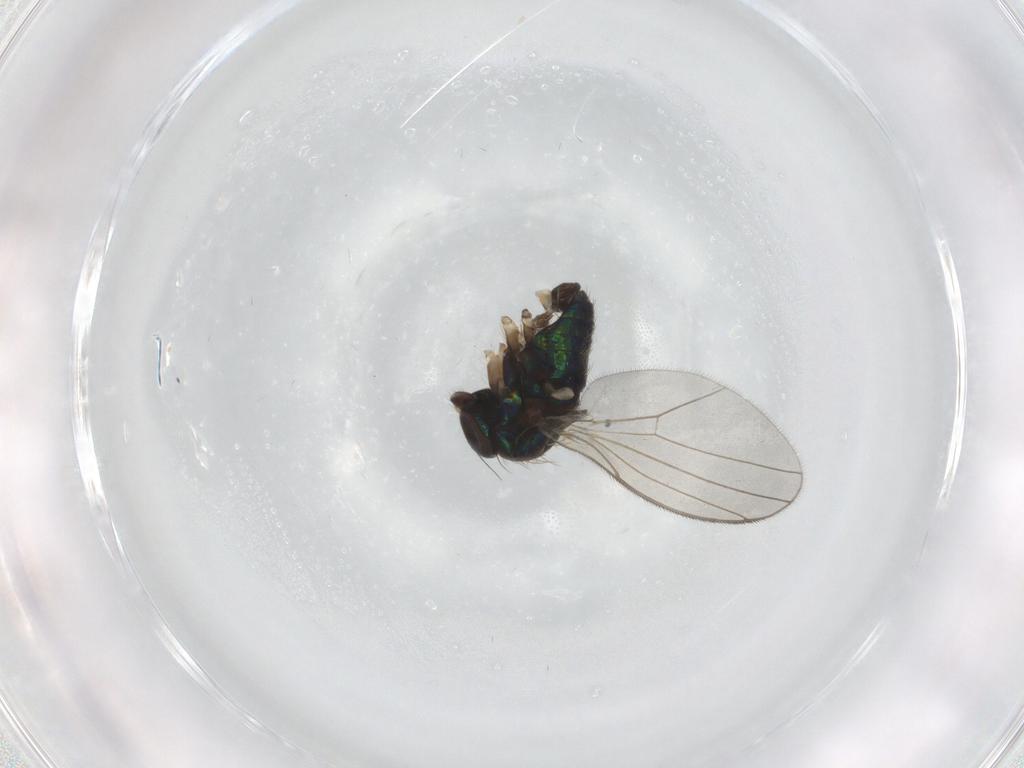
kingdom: Animalia
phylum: Arthropoda
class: Insecta
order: Diptera
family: Dolichopodidae
